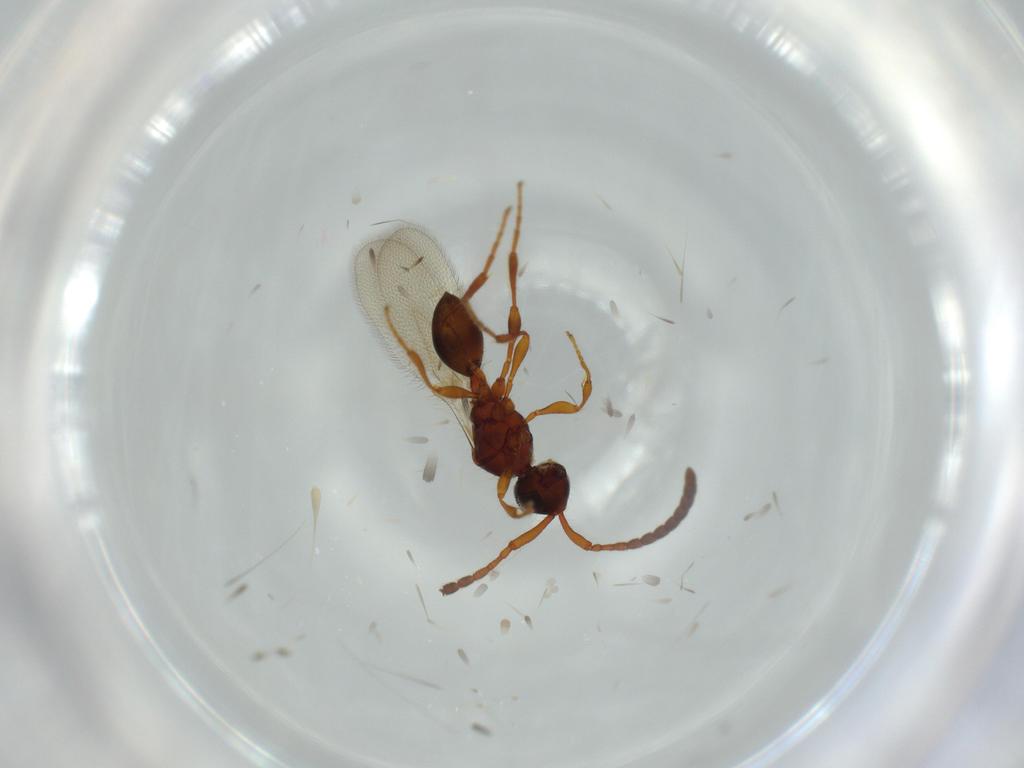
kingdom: Animalia
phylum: Arthropoda
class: Insecta
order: Hymenoptera
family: Diapriidae
